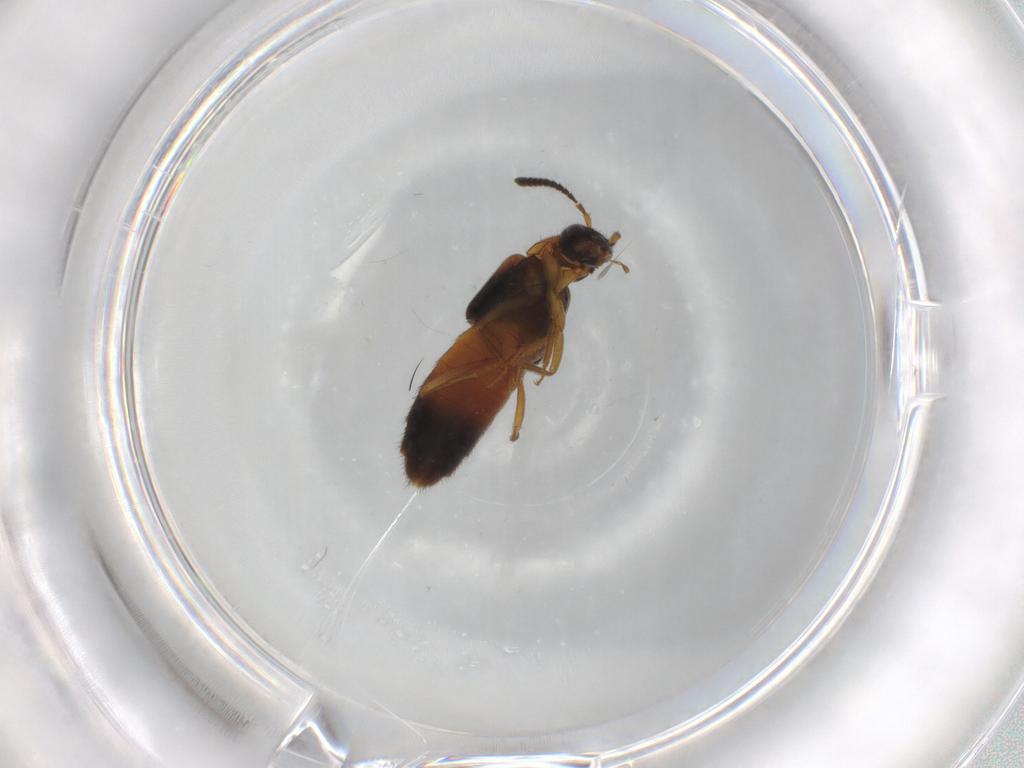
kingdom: Animalia
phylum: Arthropoda
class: Insecta
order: Coleoptera
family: Staphylinidae
